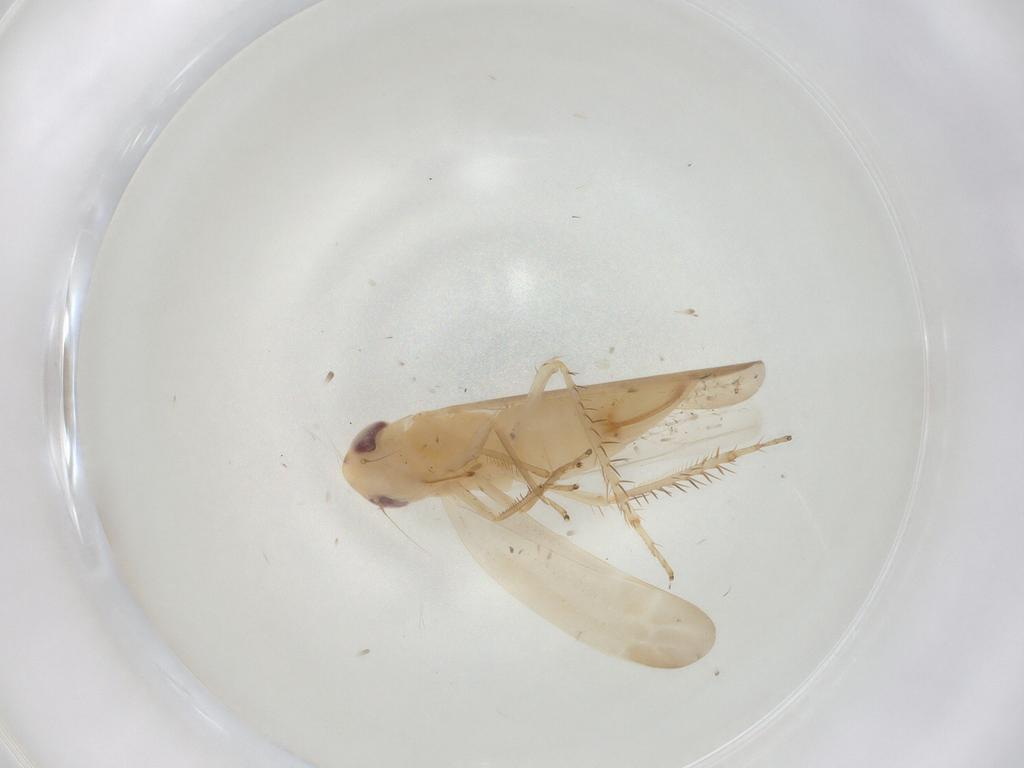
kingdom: Animalia
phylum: Arthropoda
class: Insecta
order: Hemiptera
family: Cicadellidae
